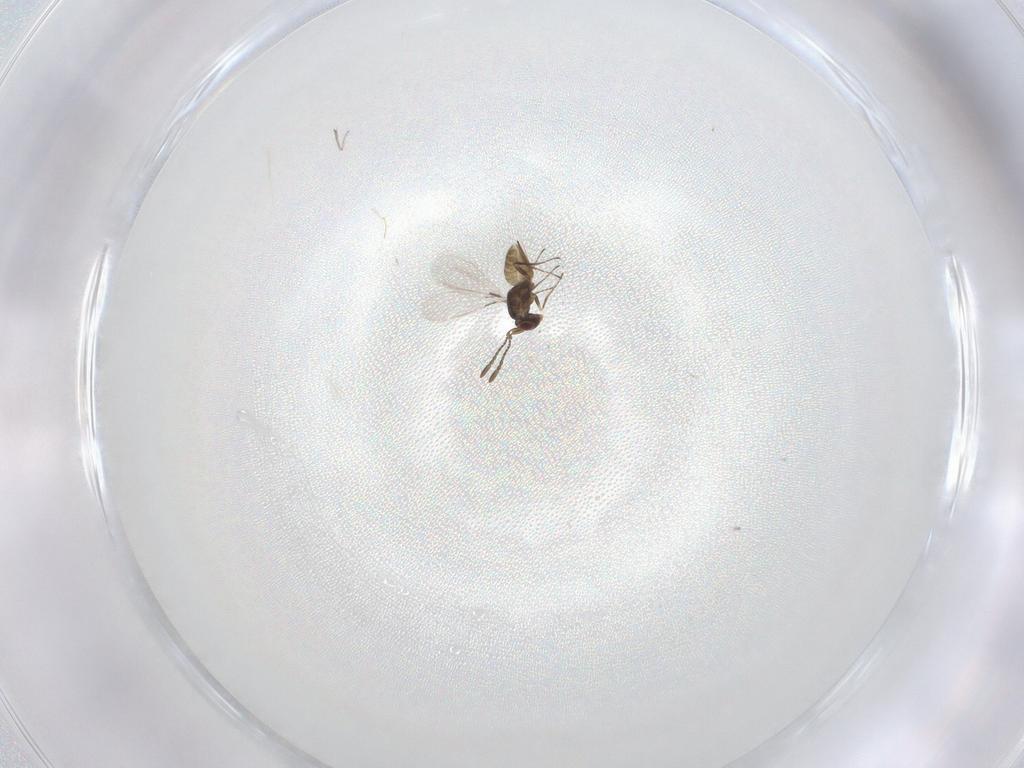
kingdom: Animalia
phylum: Arthropoda
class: Insecta
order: Hymenoptera
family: Mymaridae
